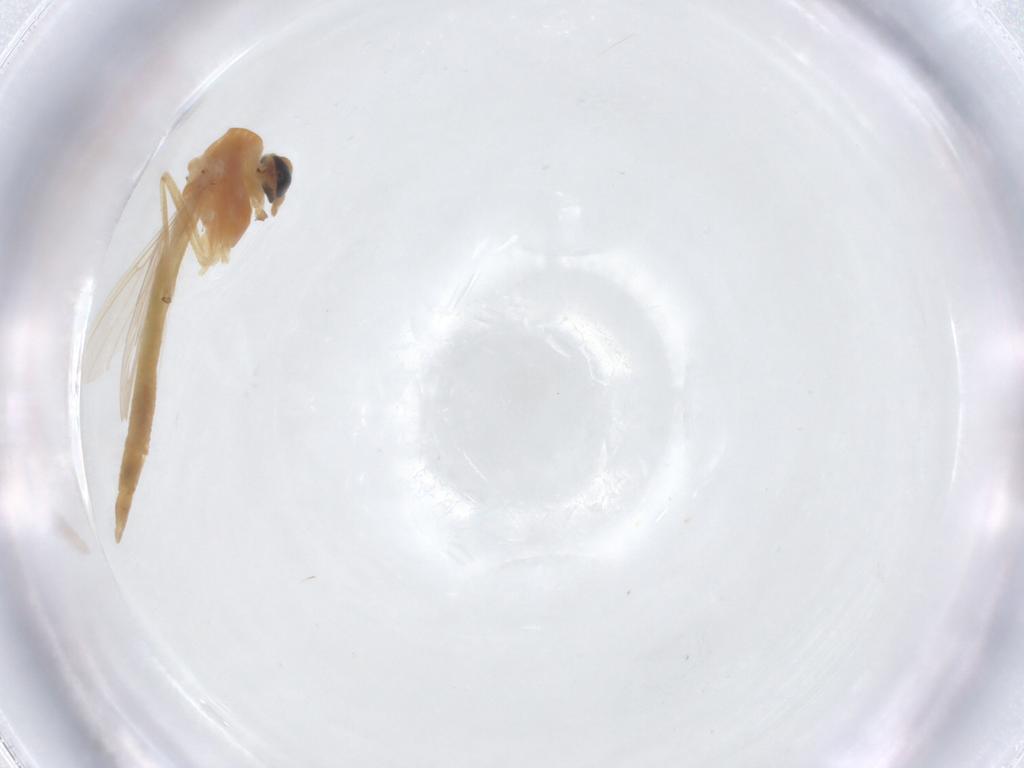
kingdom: Animalia
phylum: Arthropoda
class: Insecta
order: Diptera
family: Chironomidae
